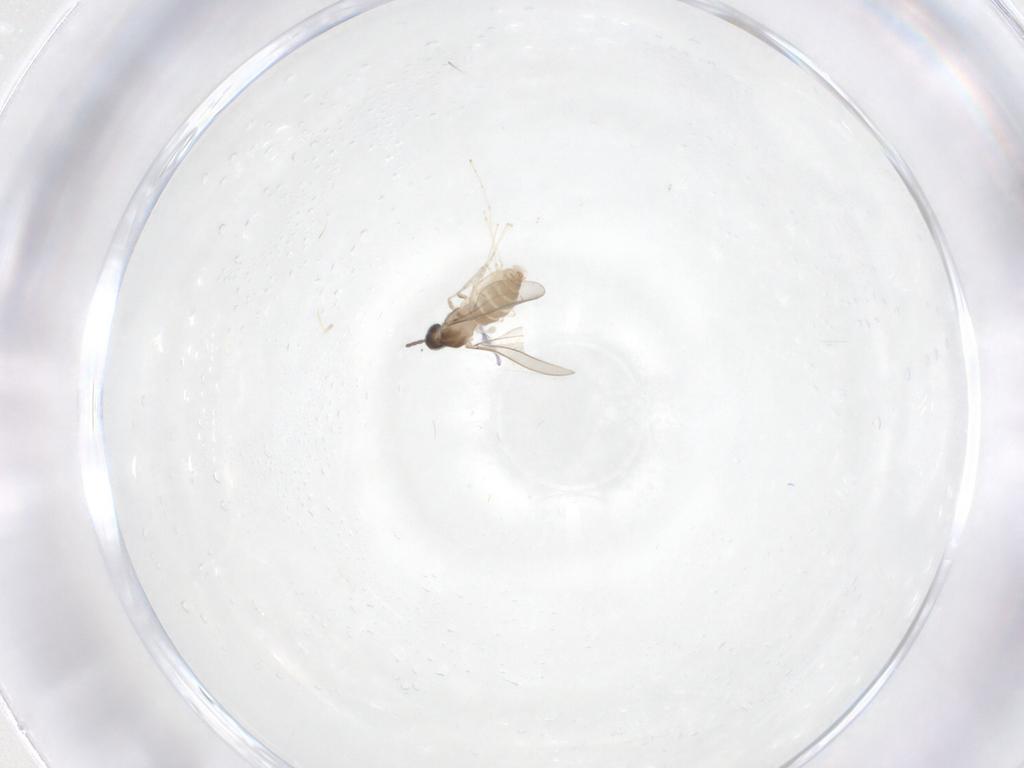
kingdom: Animalia
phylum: Arthropoda
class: Insecta
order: Diptera
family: Cecidomyiidae
